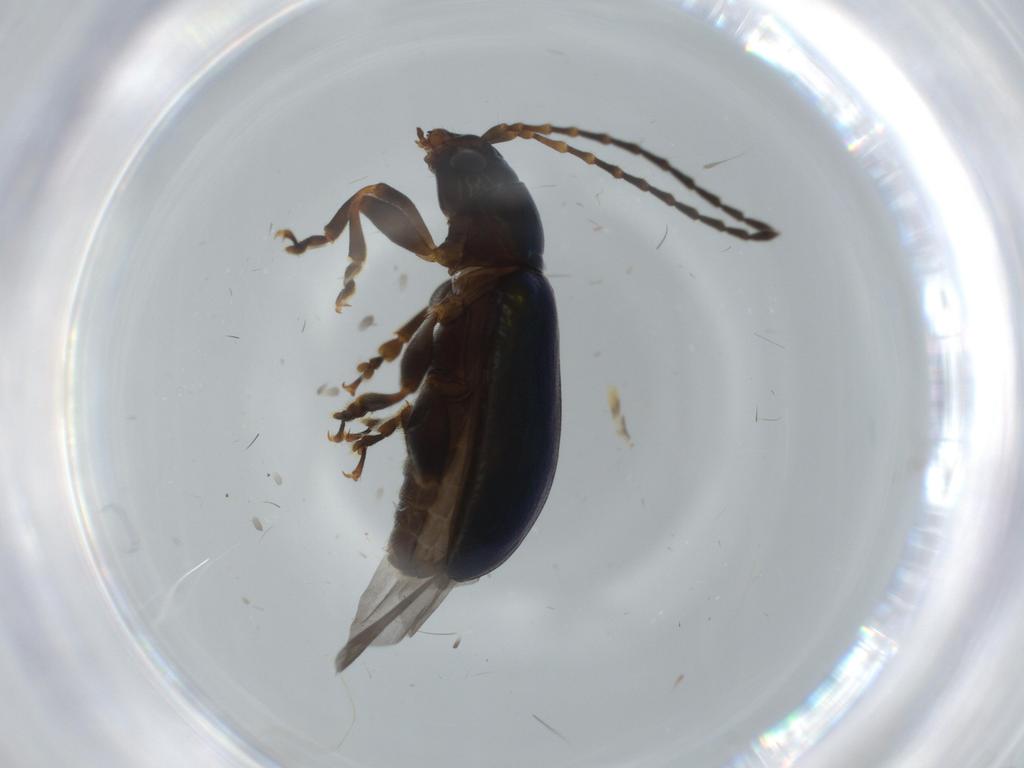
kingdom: Animalia
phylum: Arthropoda
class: Insecta
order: Coleoptera
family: Chrysomelidae
